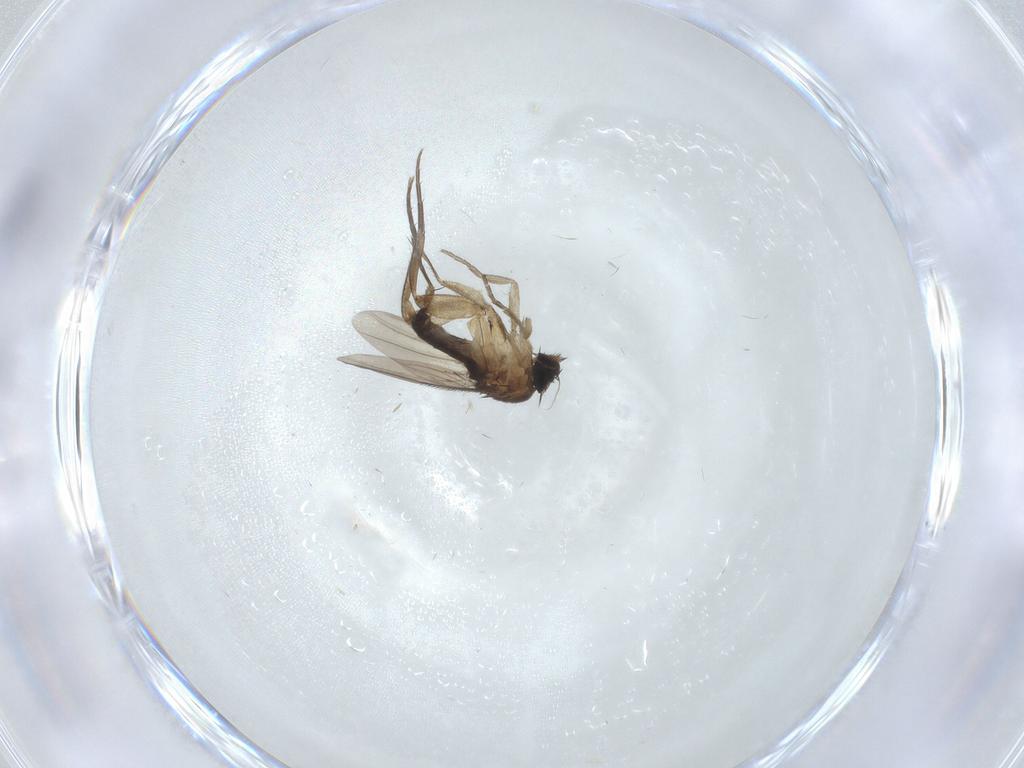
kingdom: Animalia
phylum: Arthropoda
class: Insecta
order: Diptera
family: Phoridae
